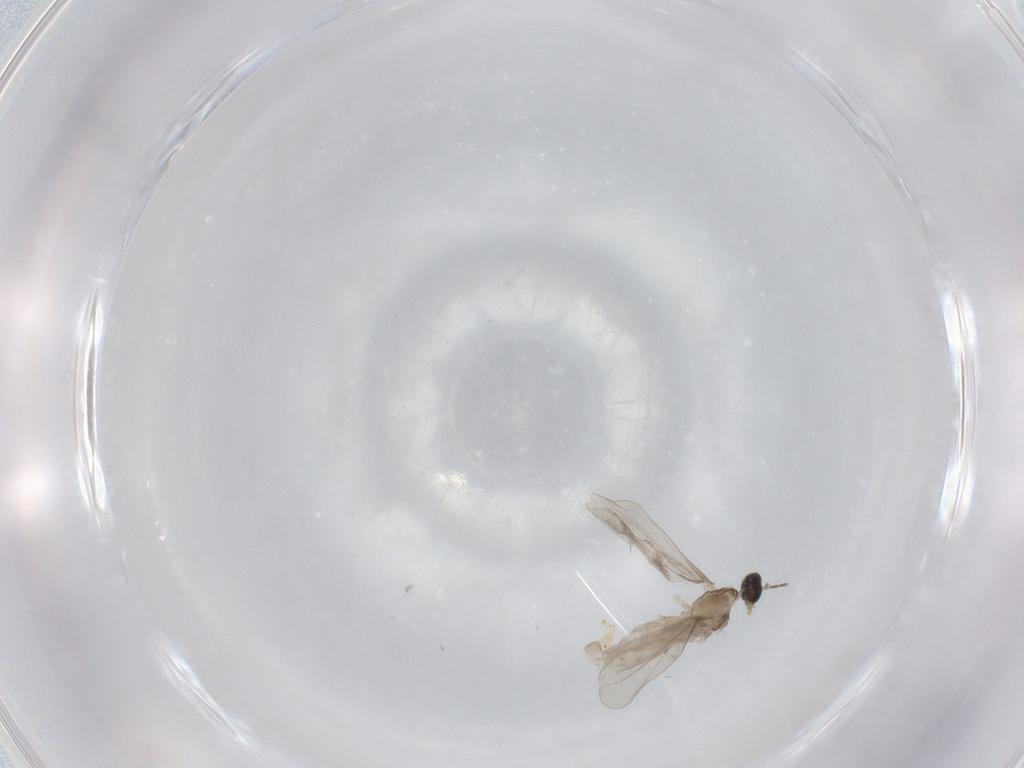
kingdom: Animalia
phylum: Arthropoda
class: Insecta
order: Diptera
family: Cecidomyiidae
